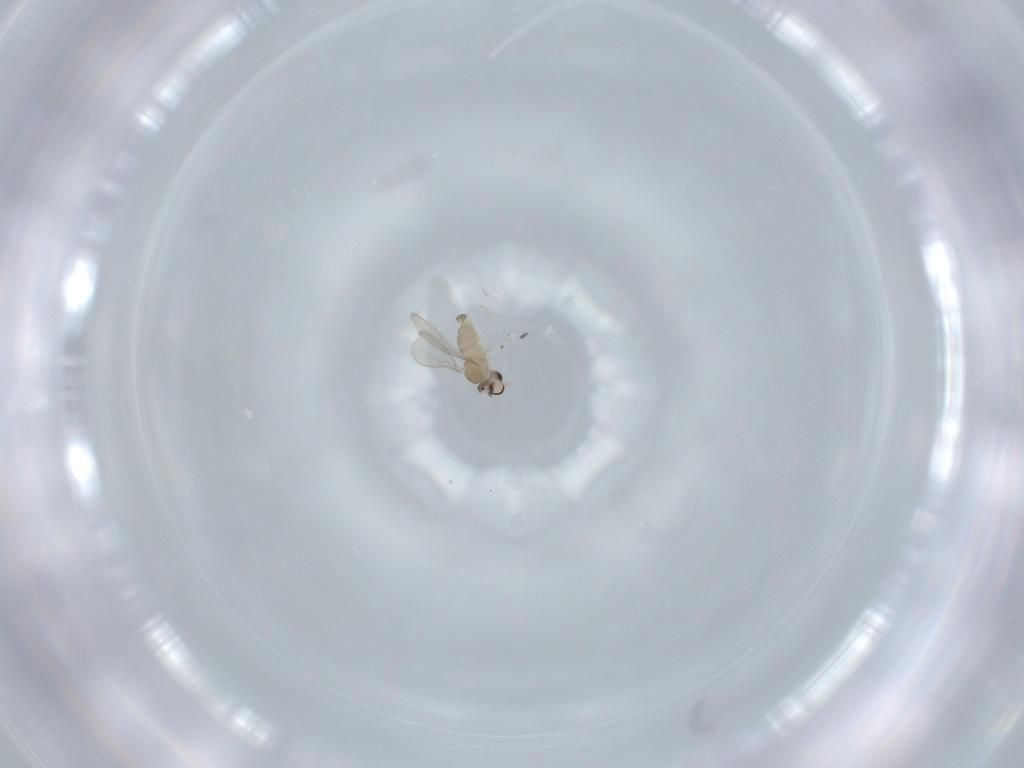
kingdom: Animalia
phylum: Arthropoda
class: Insecta
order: Diptera
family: Cecidomyiidae
